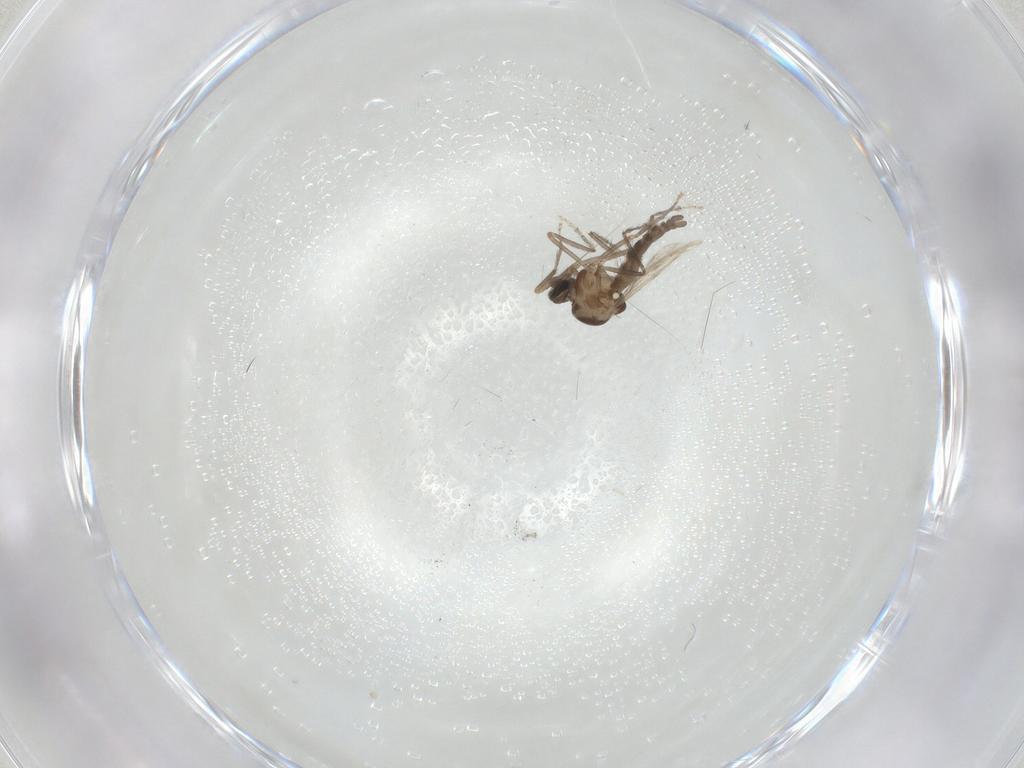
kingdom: Animalia
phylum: Arthropoda
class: Insecta
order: Diptera
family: Ceratopogonidae
